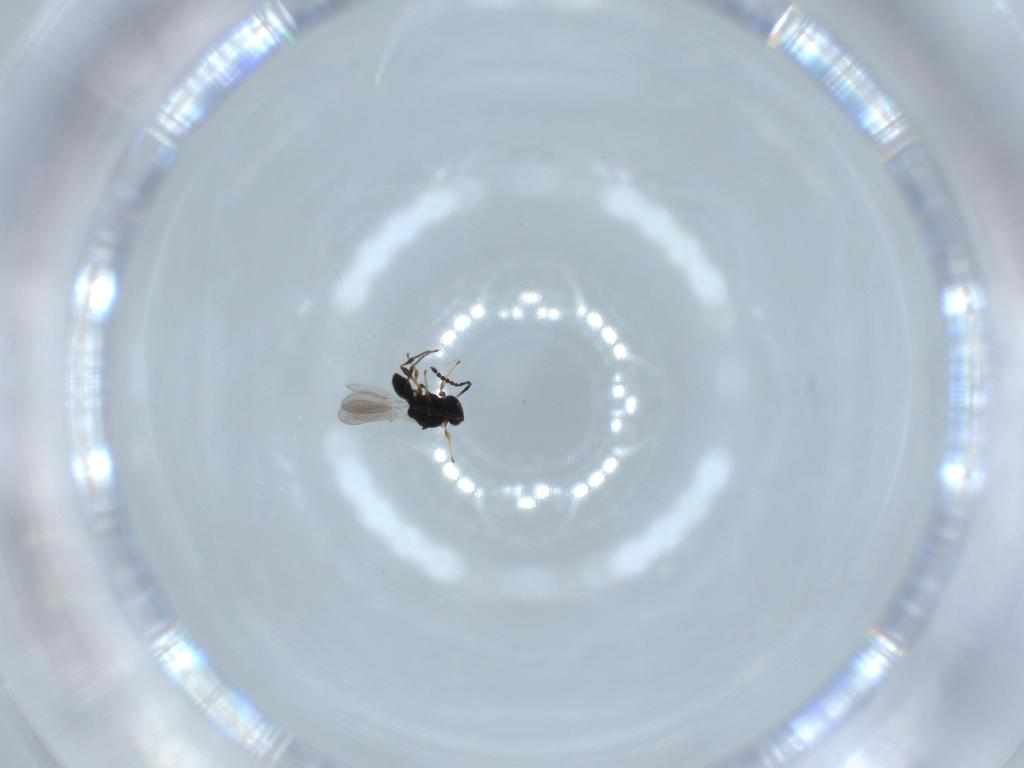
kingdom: Animalia
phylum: Arthropoda
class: Insecta
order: Hymenoptera
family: Platygastridae
